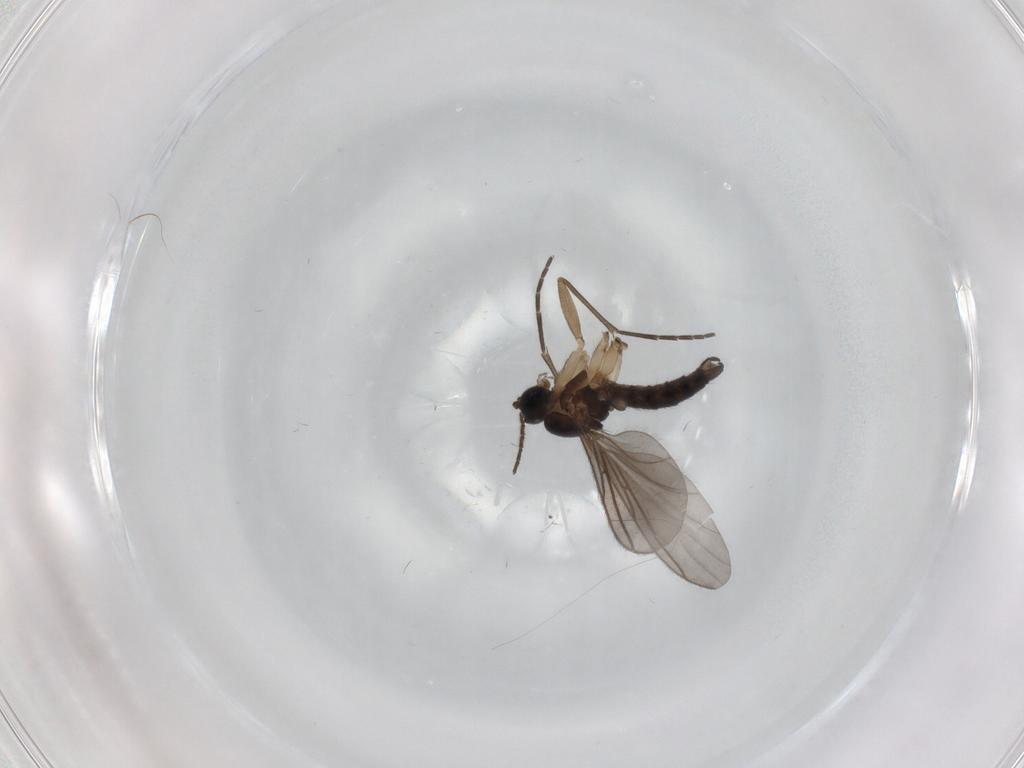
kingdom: Animalia
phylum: Arthropoda
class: Insecta
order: Diptera
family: Sciaridae
